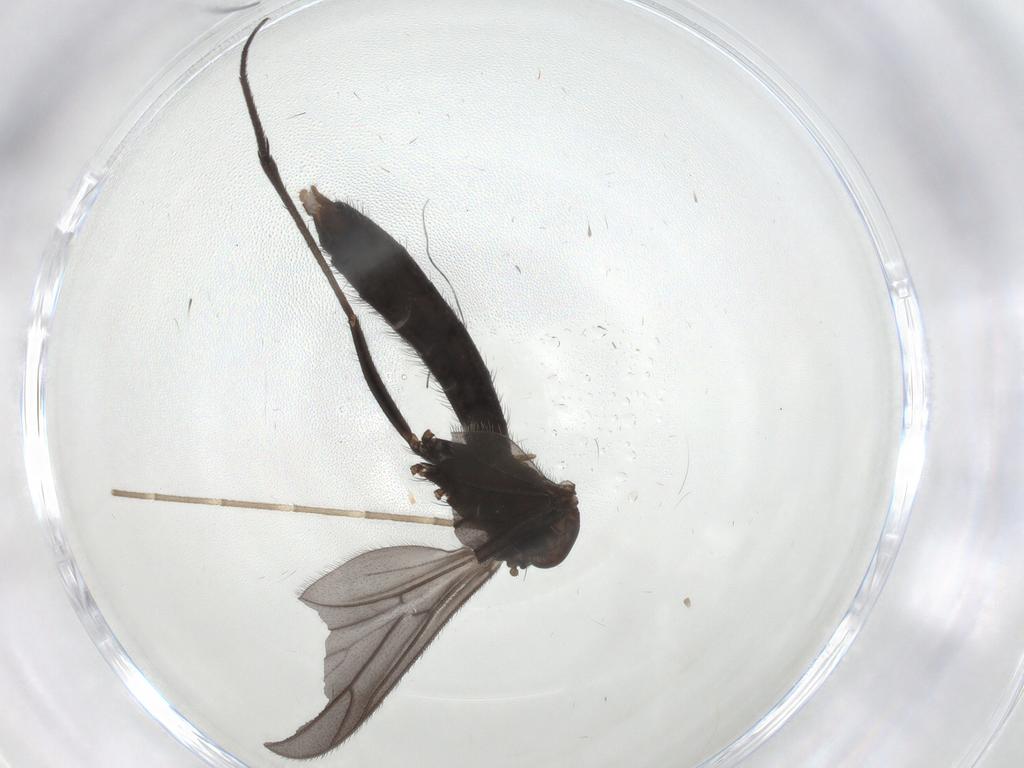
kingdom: Animalia
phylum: Arthropoda
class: Insecta
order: Diptera
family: Ditomyiidae
